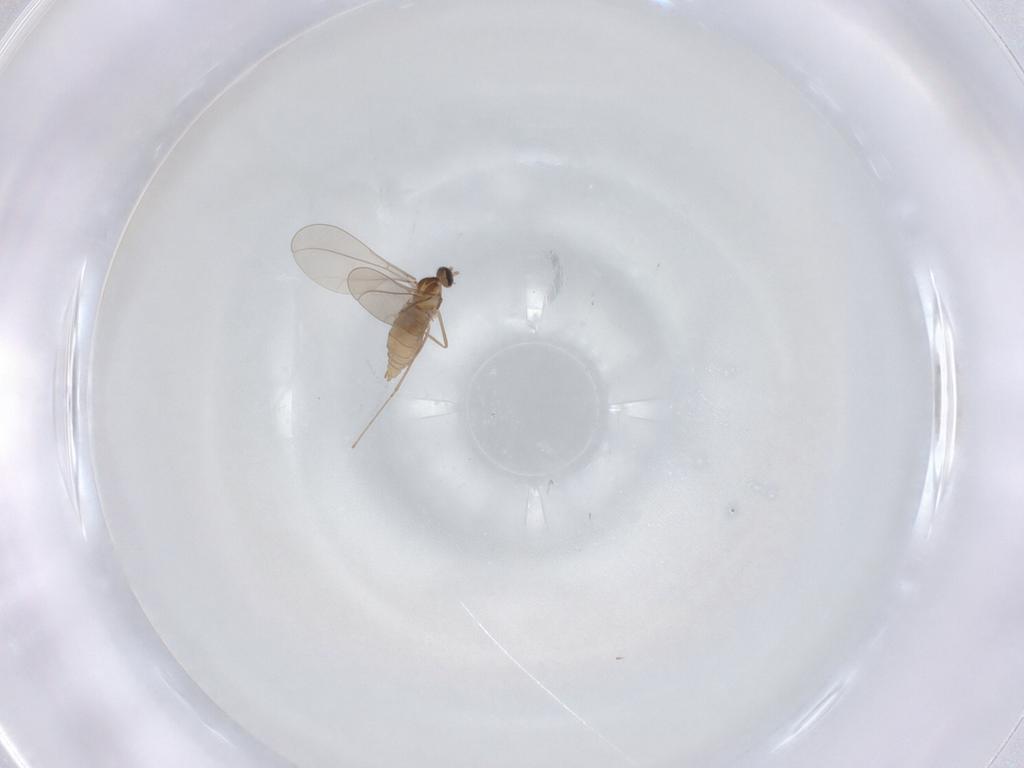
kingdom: Animalia
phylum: Arthropoda
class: Insecta
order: Diptera
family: Cecidomyiidae
